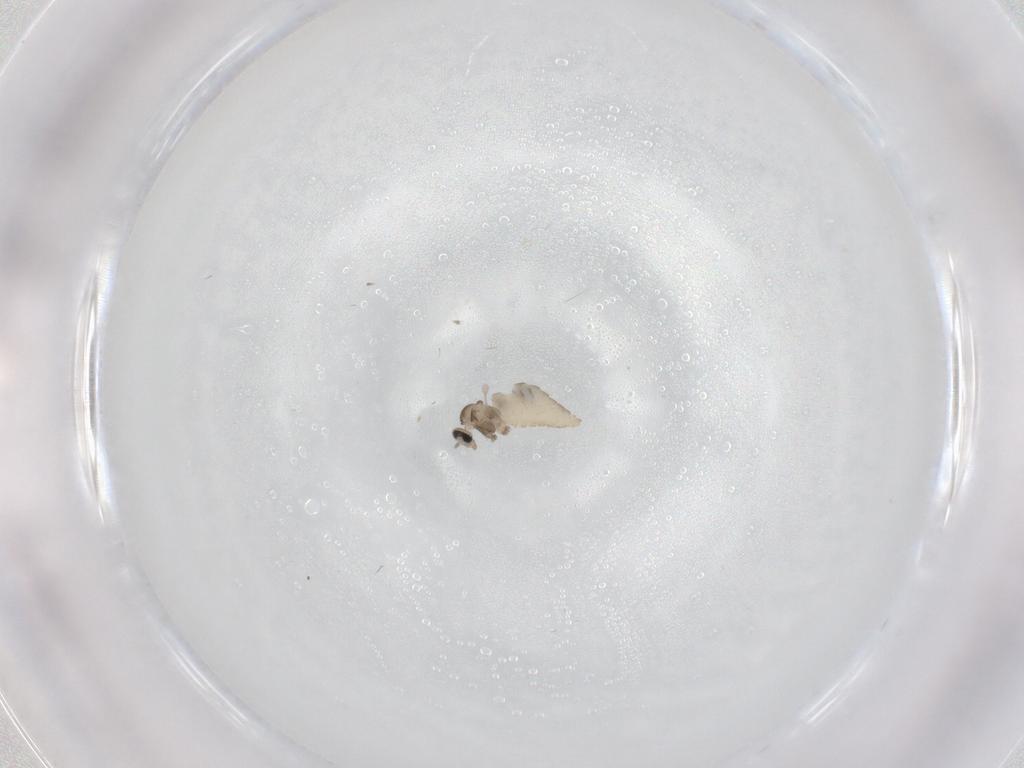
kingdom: Animalia
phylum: Arthropoda
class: Insecta
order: Diptera
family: Cecidomyiidae
